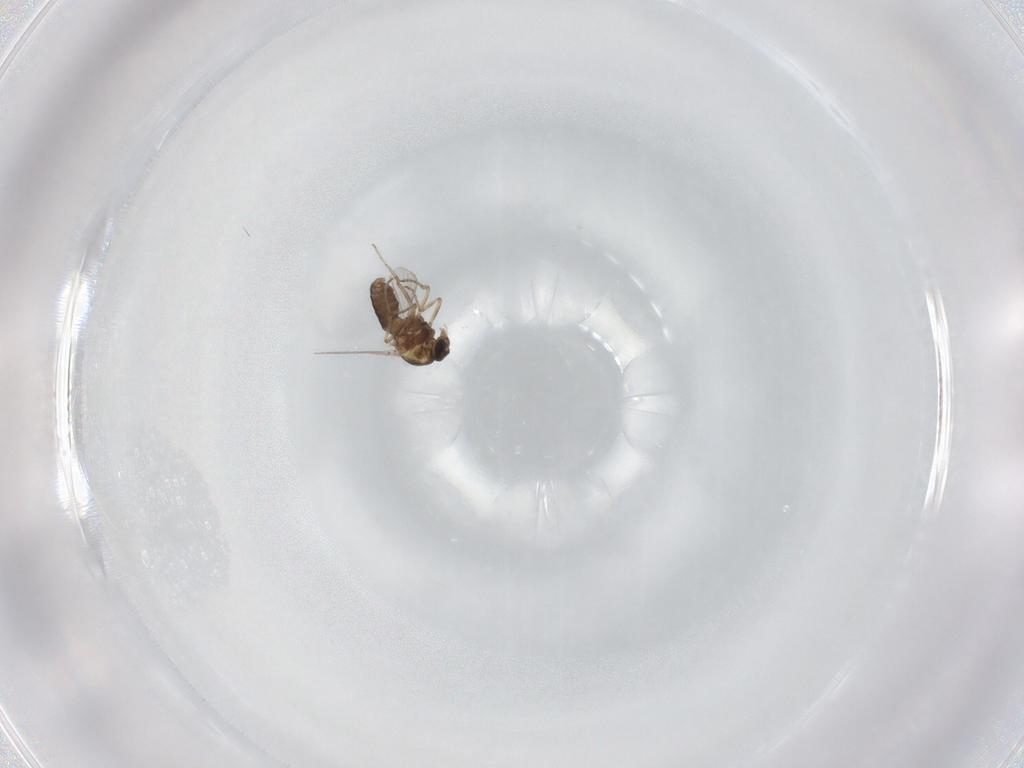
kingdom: Animalia
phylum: Arthropoda
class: Insecta
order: Diptera
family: Ceratopogonidae
